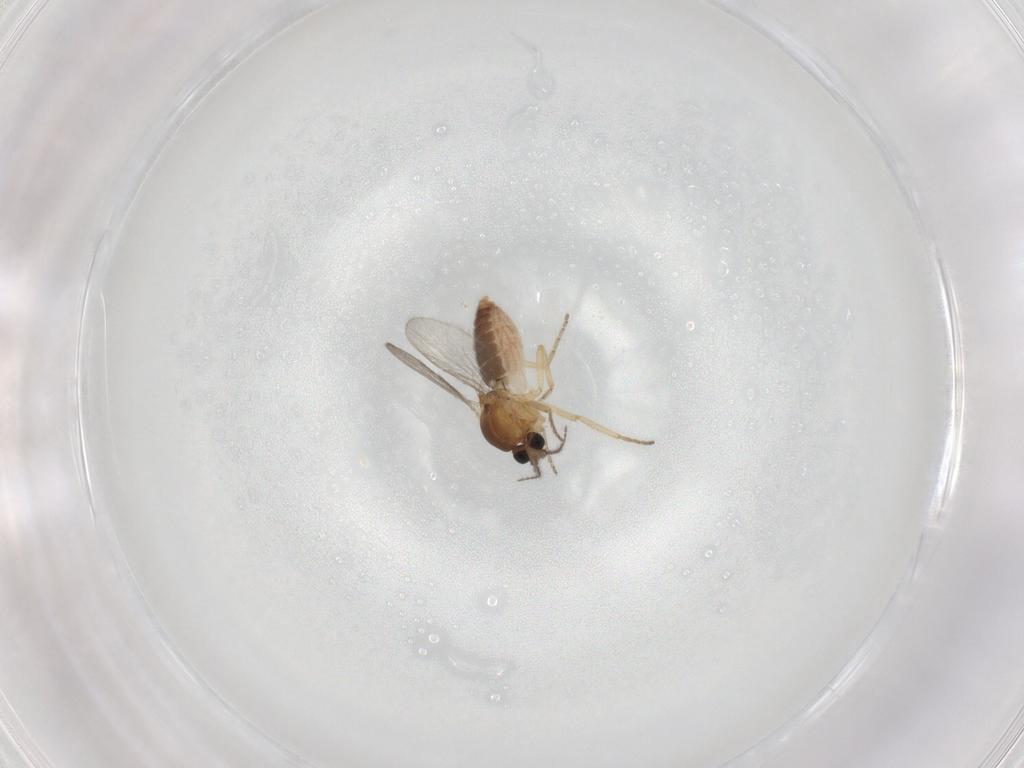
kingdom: Animalia
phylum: Arthropoda
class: Insecta
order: Diptera
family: Ceratopogonidae
